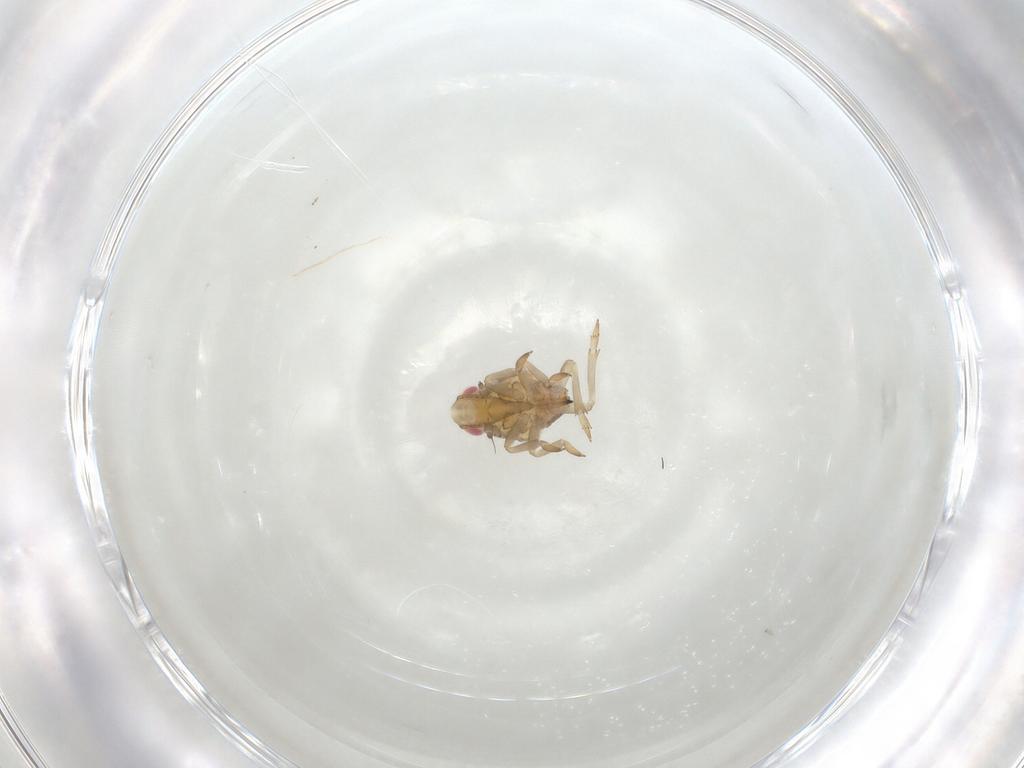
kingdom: Animalia
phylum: Arthropoda
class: Insecta
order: Hemiptera
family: Tropiduchidae
